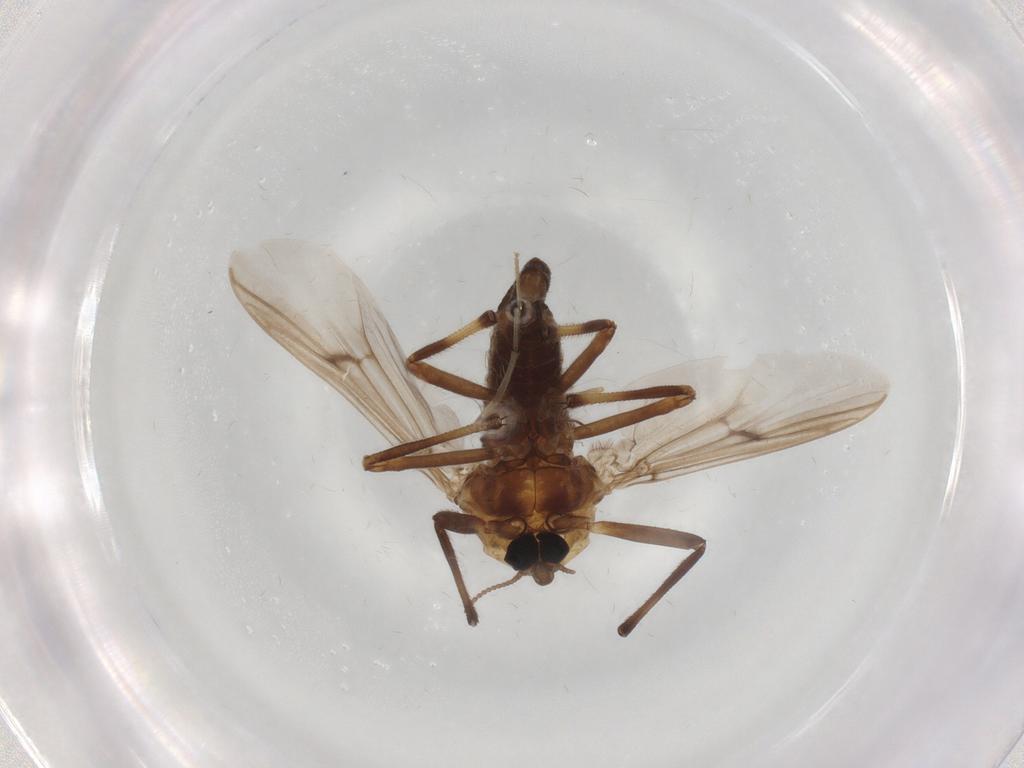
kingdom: Animalia
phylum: Arthropoda
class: Insecta
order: Diptera
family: Chironomidae
